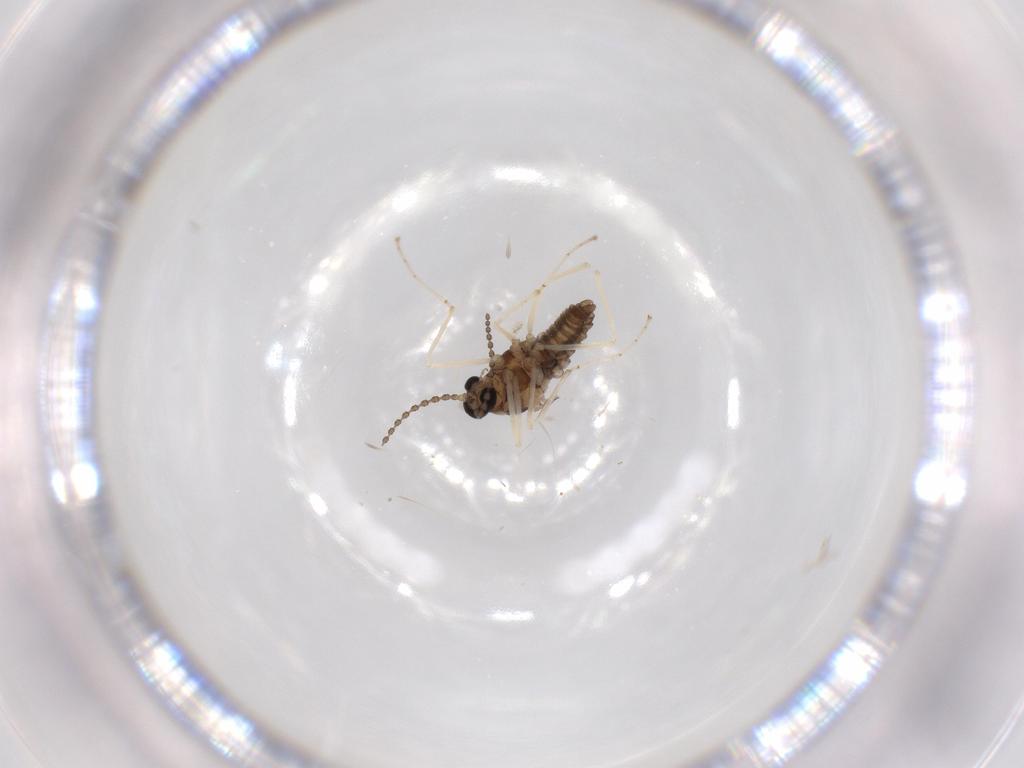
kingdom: Animalia
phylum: Arthropoda
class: Insecta
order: Diptera
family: Cecidomyiidae
